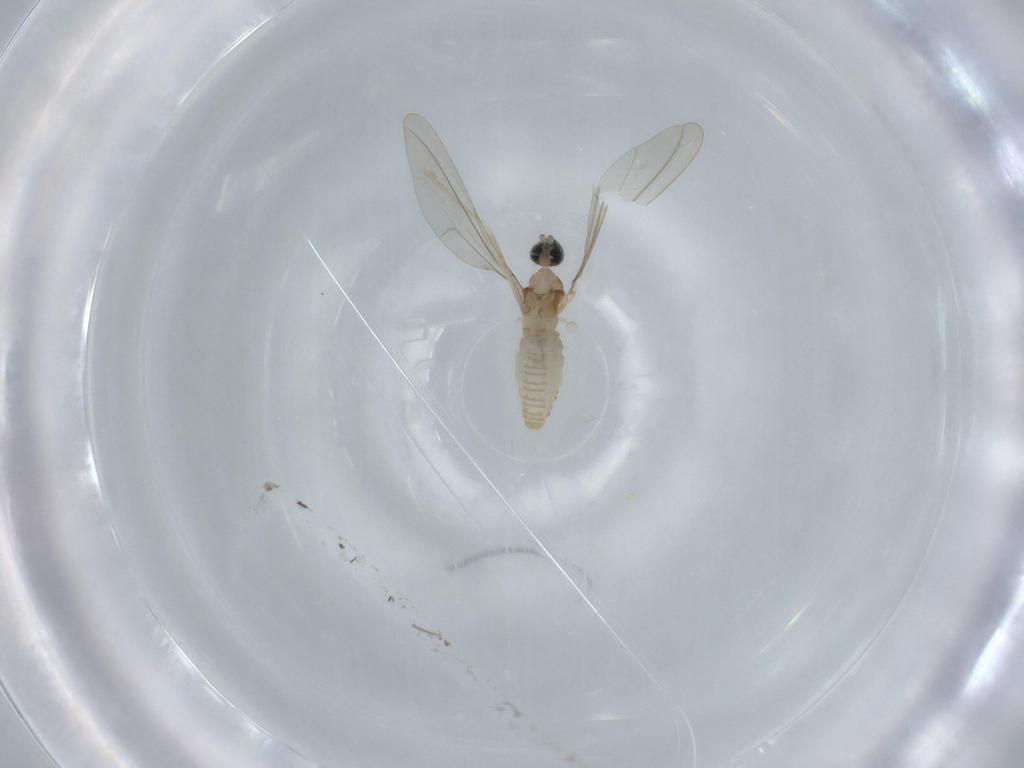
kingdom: Animalia
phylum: Arthropoda
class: Insecta
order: Diptera
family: Cecidomyiidae
